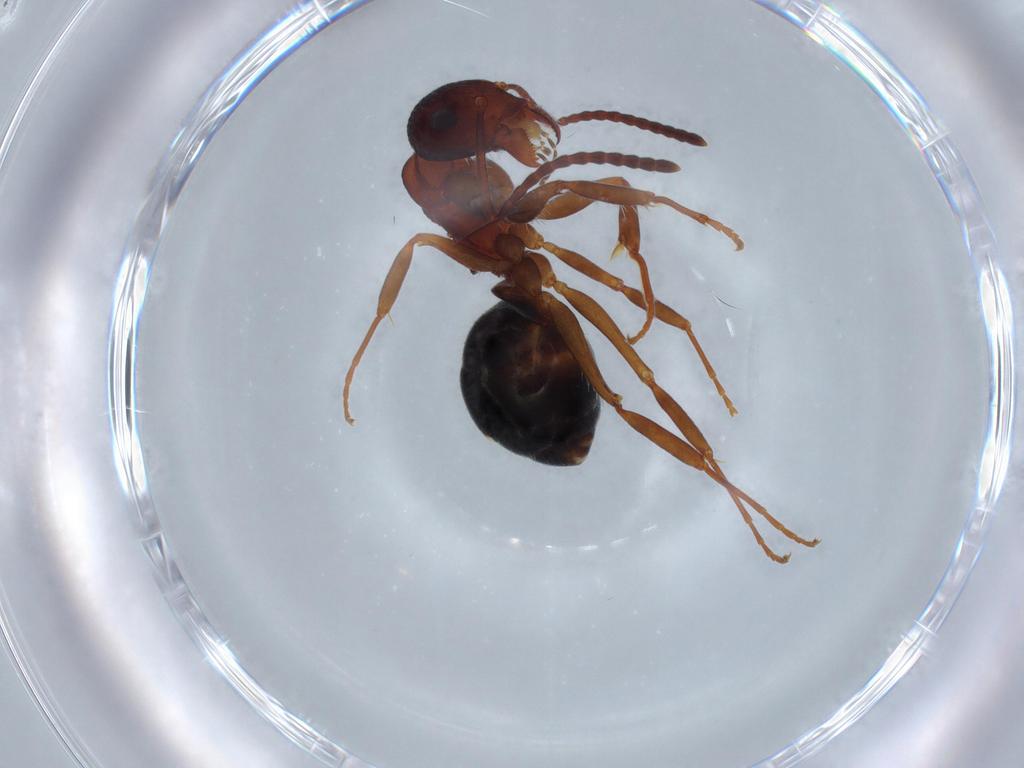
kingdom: Animalia
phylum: Arthropoda
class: Insecta
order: Hymenoptera
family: Formicidae
